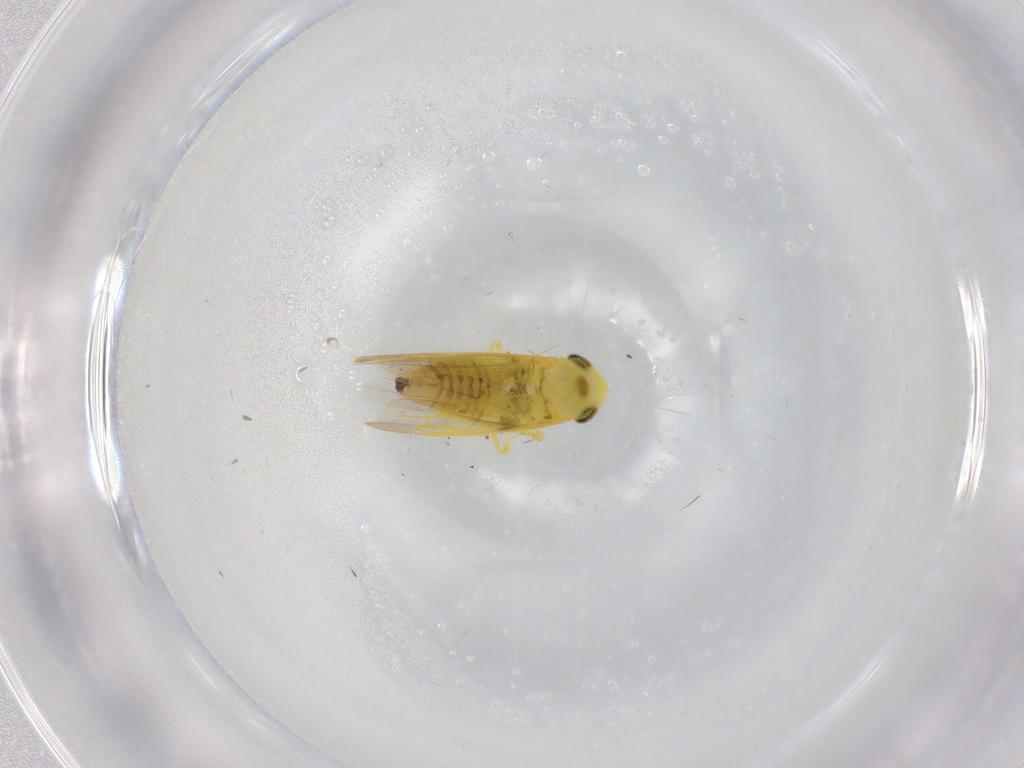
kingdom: Animalia
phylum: Arthropoda
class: Insecta
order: Hemiptera
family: Cicadellidae
